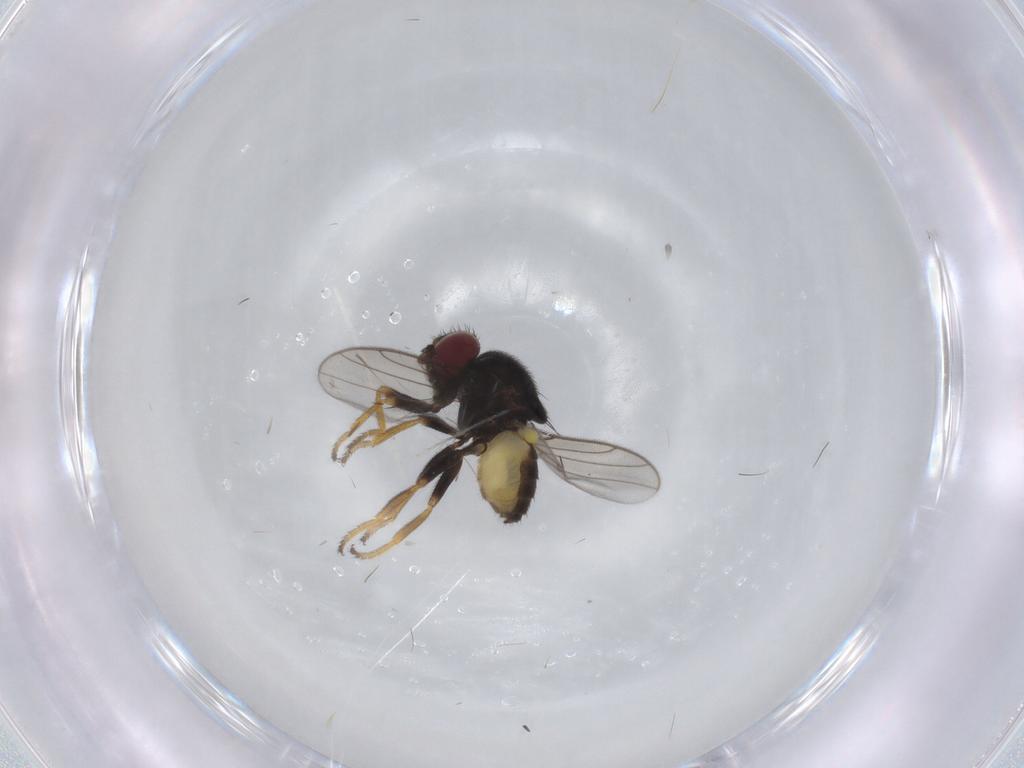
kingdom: Animalia
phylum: Arthropoda
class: Insecta
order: Diptera
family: Chloropidae
